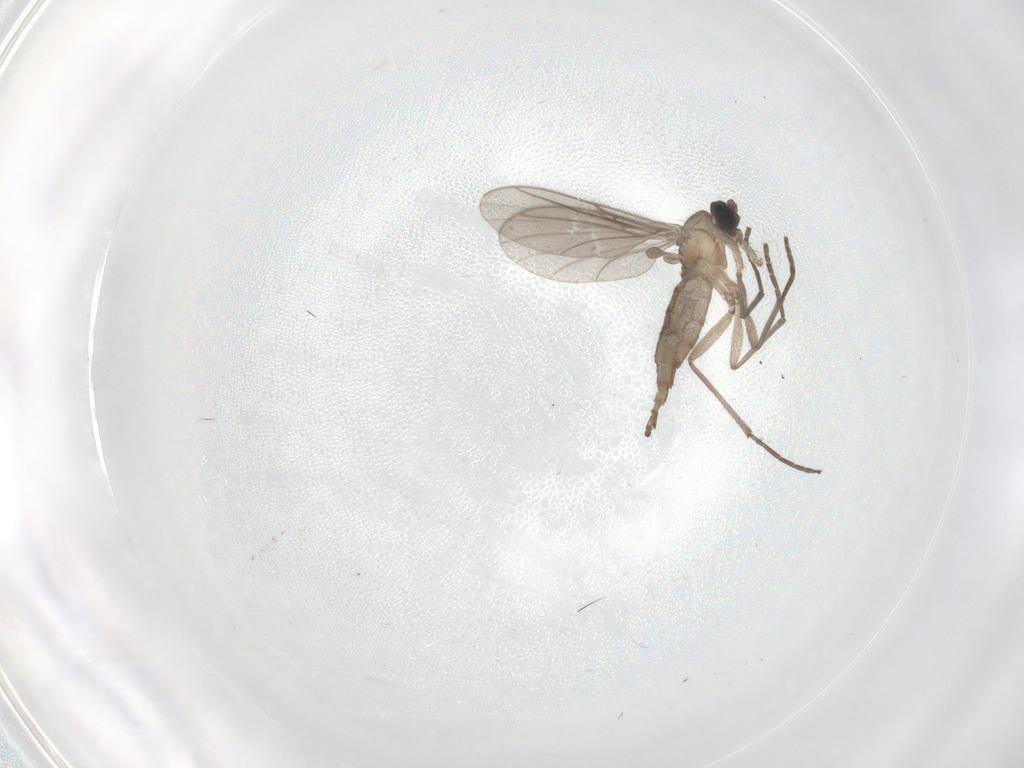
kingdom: Animalia
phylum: Arthropoda
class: Insecta
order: Diptera
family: Sciaridae
